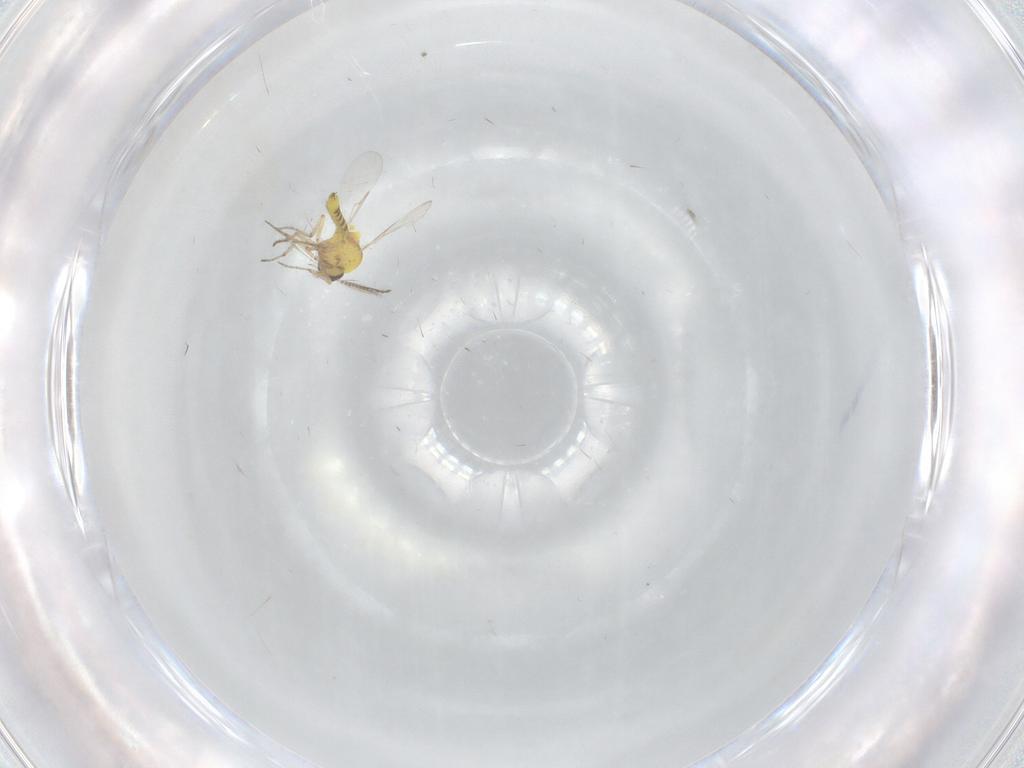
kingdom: Animalia
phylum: Arthropoda
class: Insecta
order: Diptera
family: Ceratopogonidae
